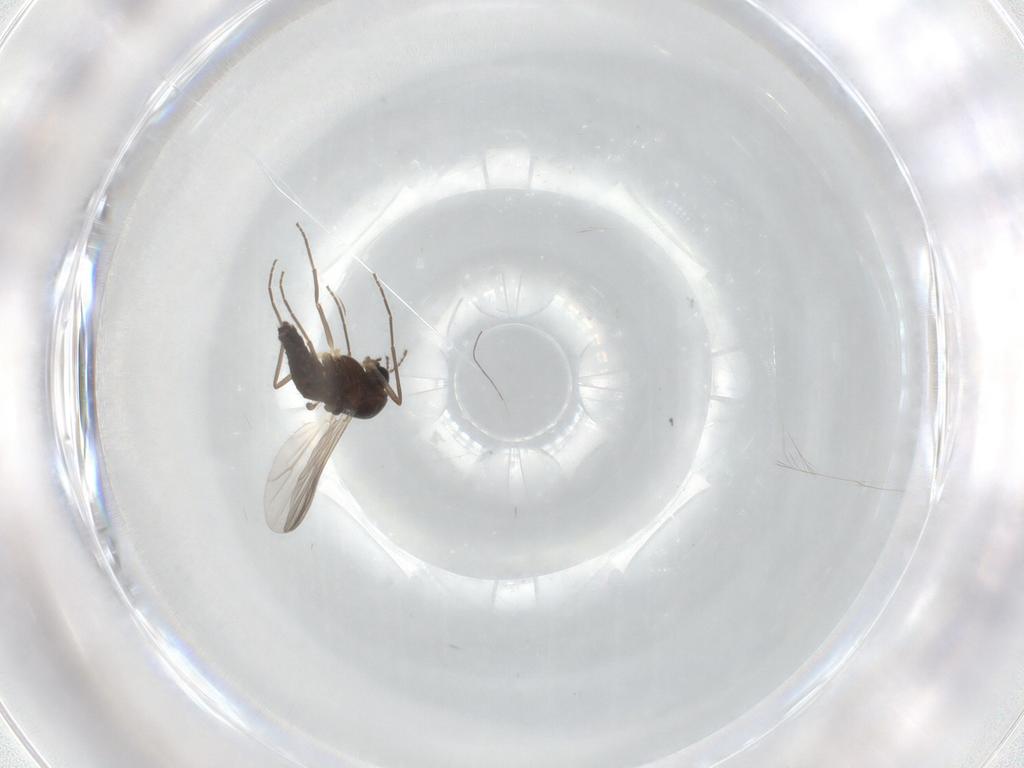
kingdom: Animalia
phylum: Arthropoda
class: Insecta
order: Diptera
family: Chironomidae
